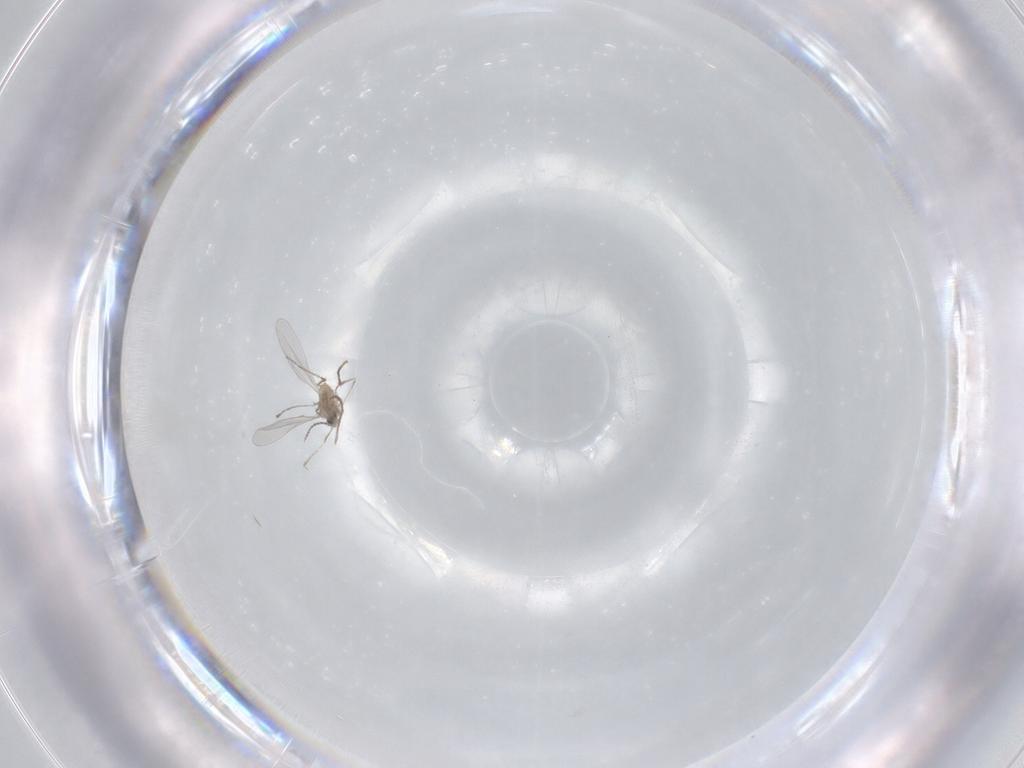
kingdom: Animalia
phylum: Arthropoda
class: Insecta
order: Diptera
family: Cecidomyiidae
